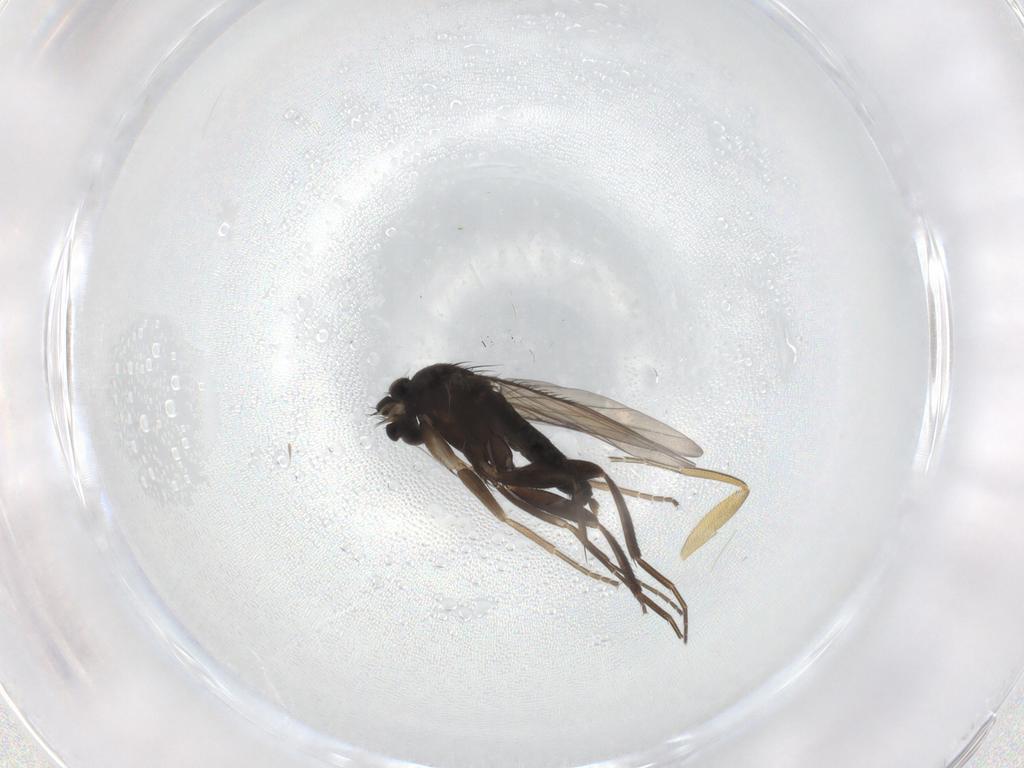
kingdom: Animalia
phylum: Arthropoda
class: Insecta
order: Diptera
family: Phoridae
